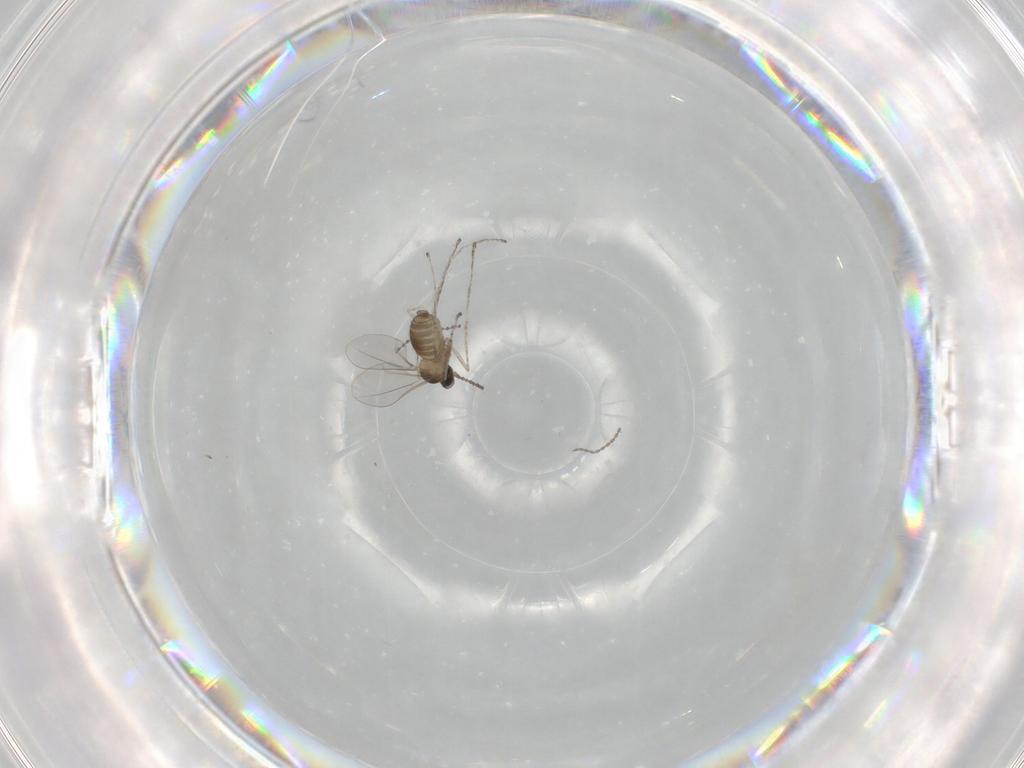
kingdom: Animalia
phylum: Arthropoda
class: Insecta
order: Diptera
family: Cecidomyiidae
